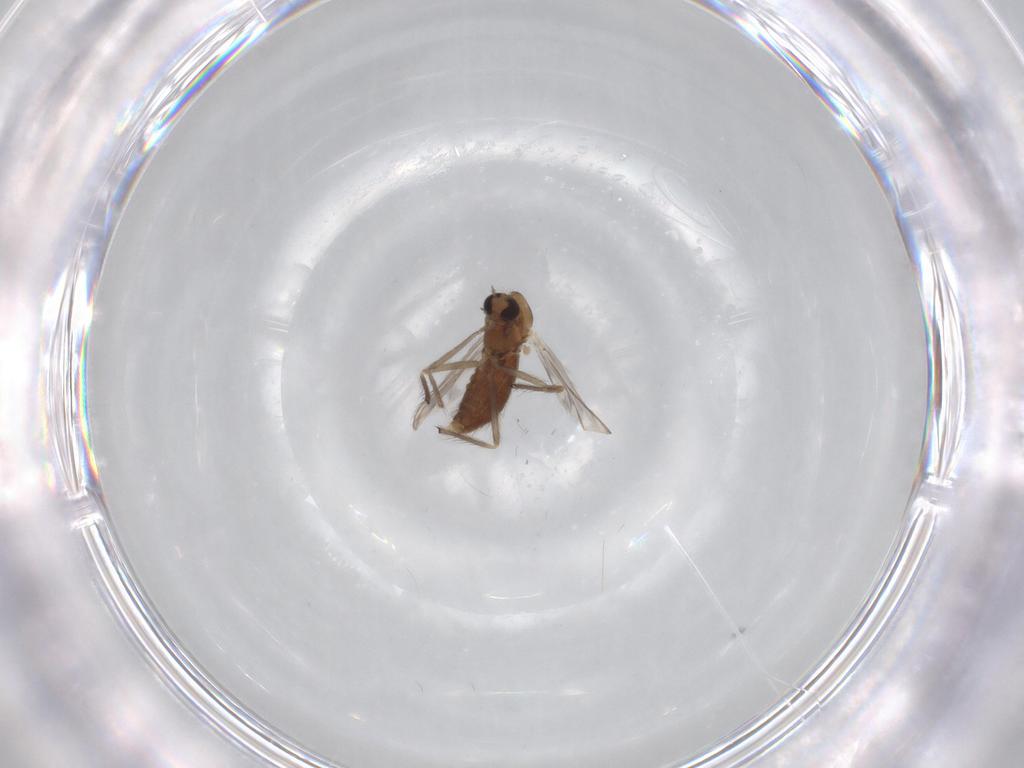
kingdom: Animalia
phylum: Arthropoda
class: Insecta
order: Diptera
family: Chironomidae
